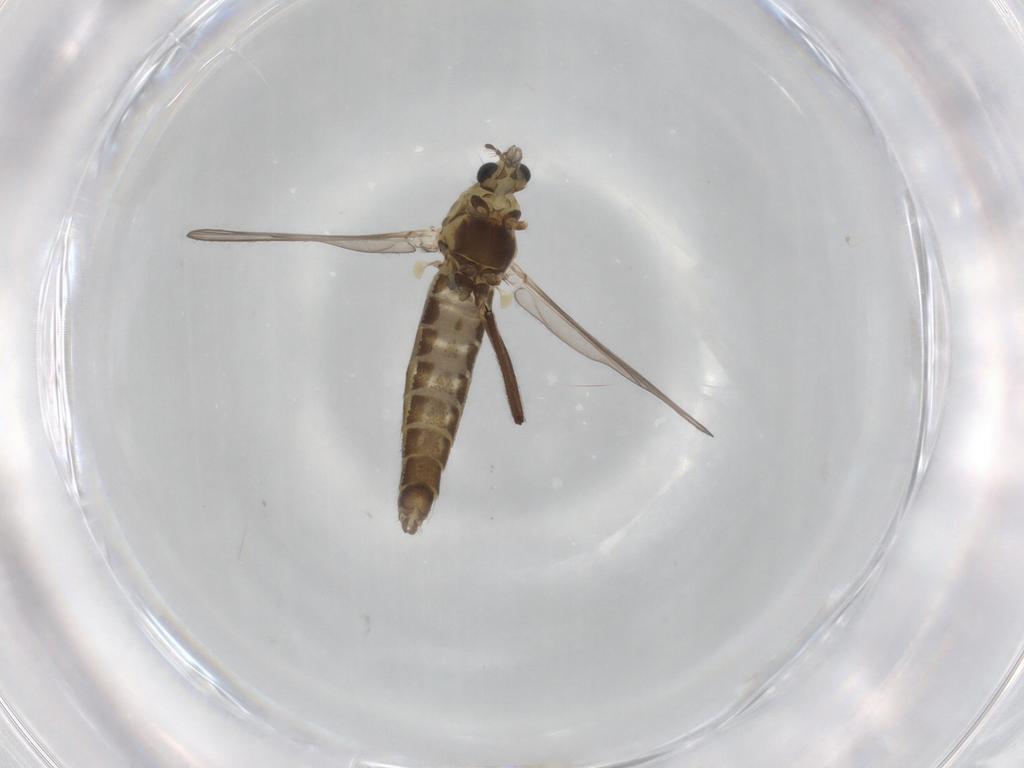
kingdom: Animalia
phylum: Arthropoda
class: Insecta
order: Diptera
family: Chironomidae
